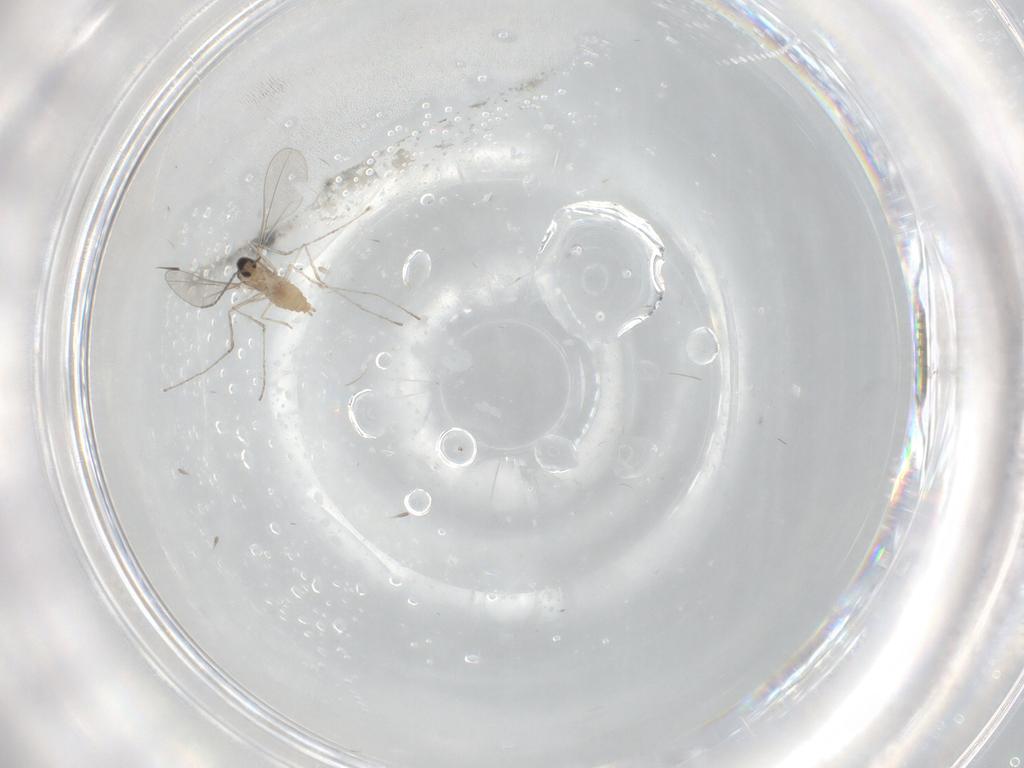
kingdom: Animalia
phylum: Arthropoda
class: Insecta
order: Diptera
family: Cecidomyiidae
